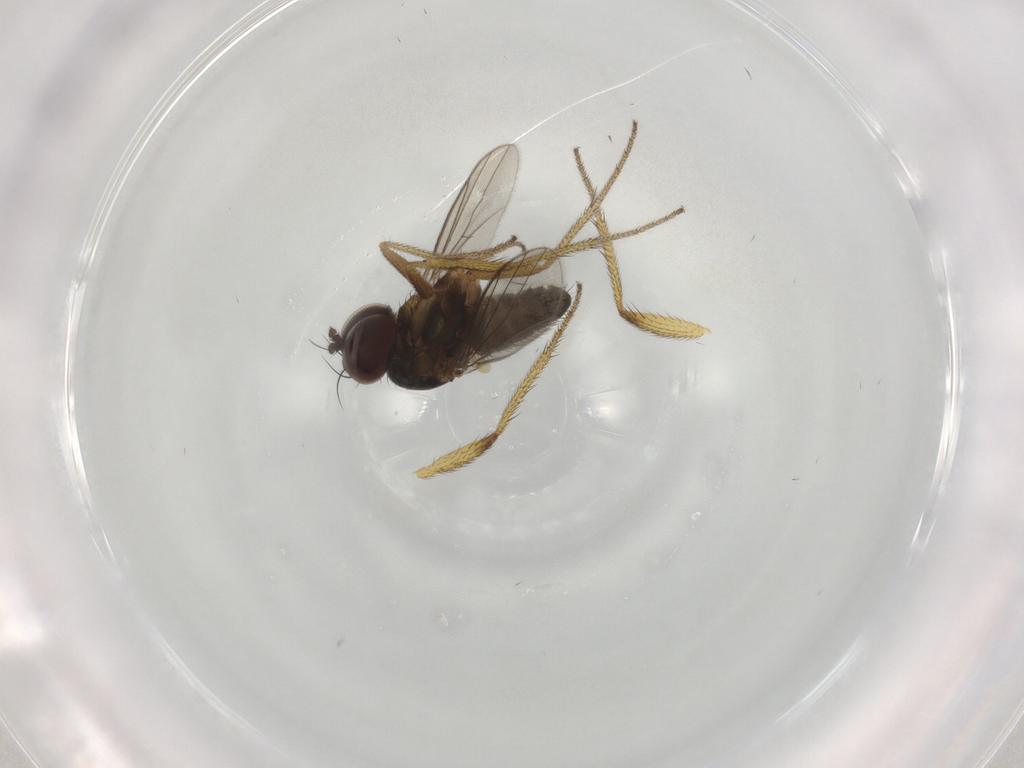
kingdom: Animalia
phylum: Arthropoda
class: Insecta
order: Diptera
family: Dolichopodidae
